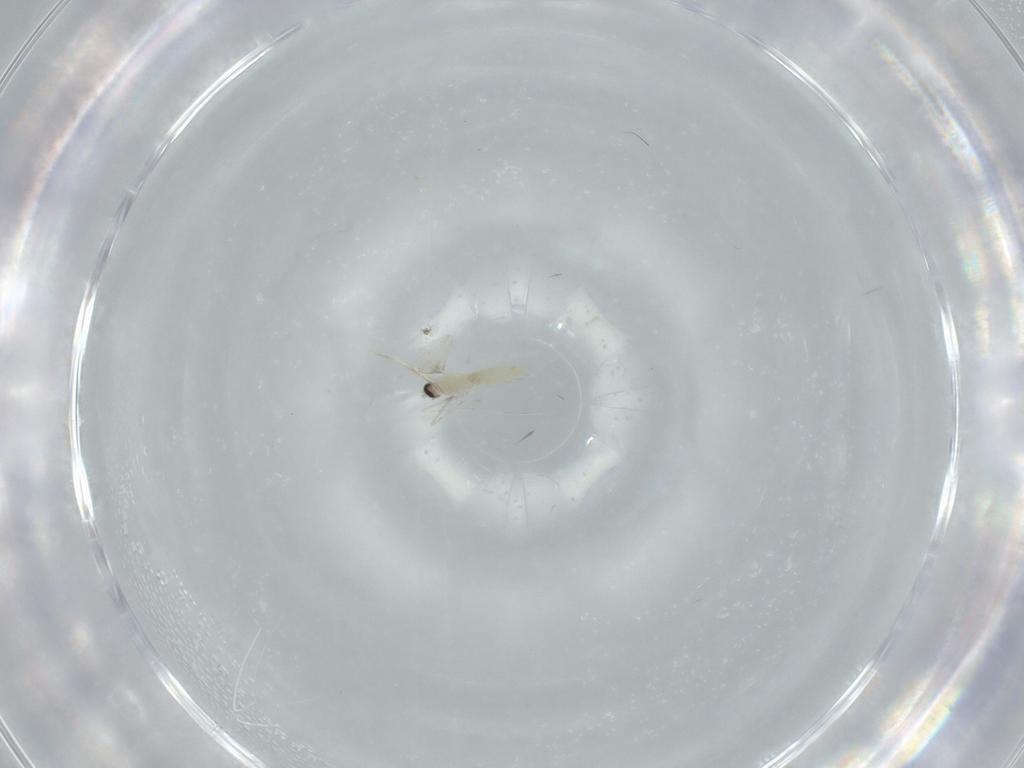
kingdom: Animalia
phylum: Arthropoda
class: Insecta
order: Diptera
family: Cecidomyiidae
